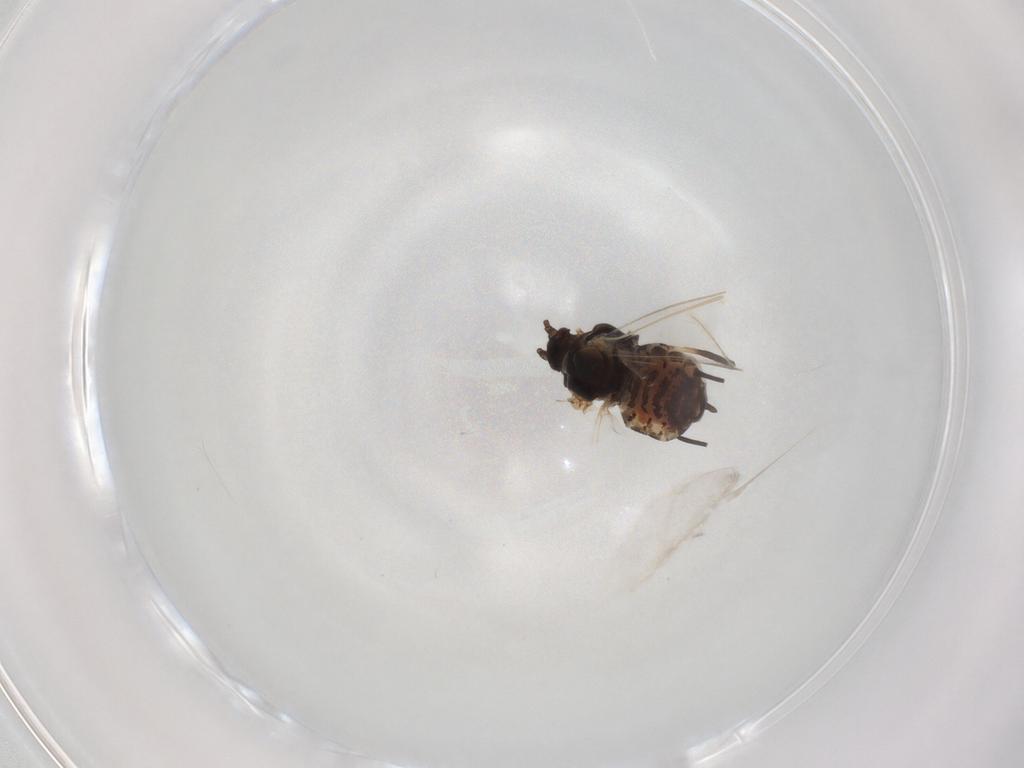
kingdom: Animalia
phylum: Arthropoda
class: Insecta
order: Hemiptera
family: Aphididae
